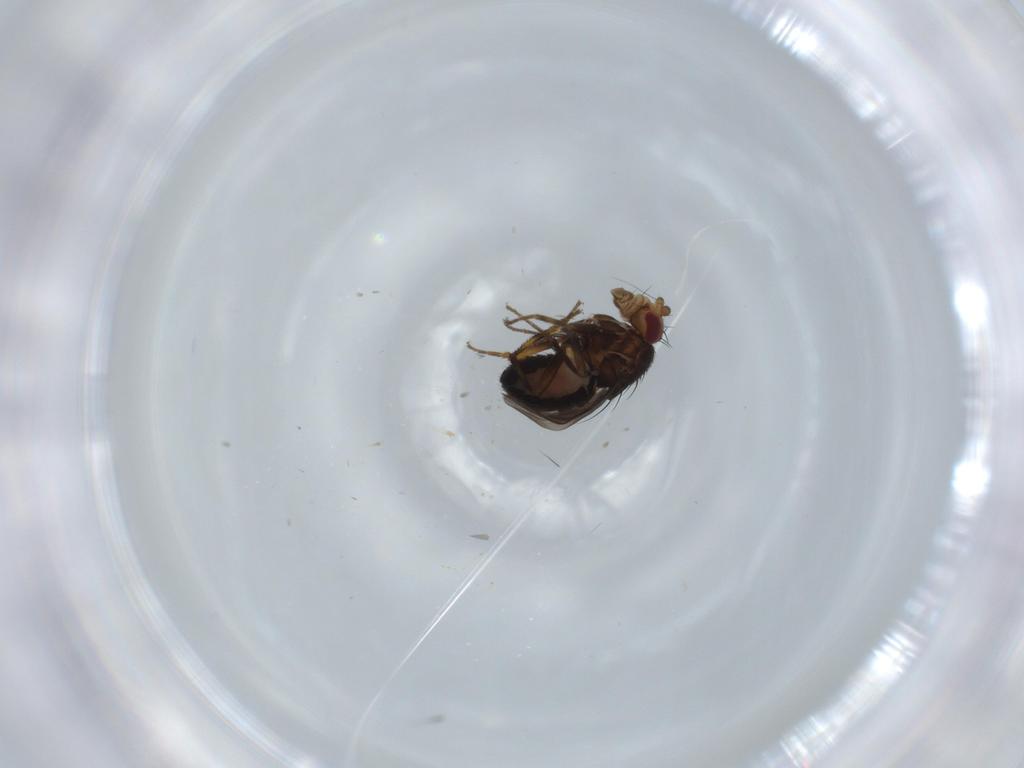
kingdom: Animalia
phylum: Arthropoda
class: Insecta
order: Diptera
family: Cecidomyiidae
